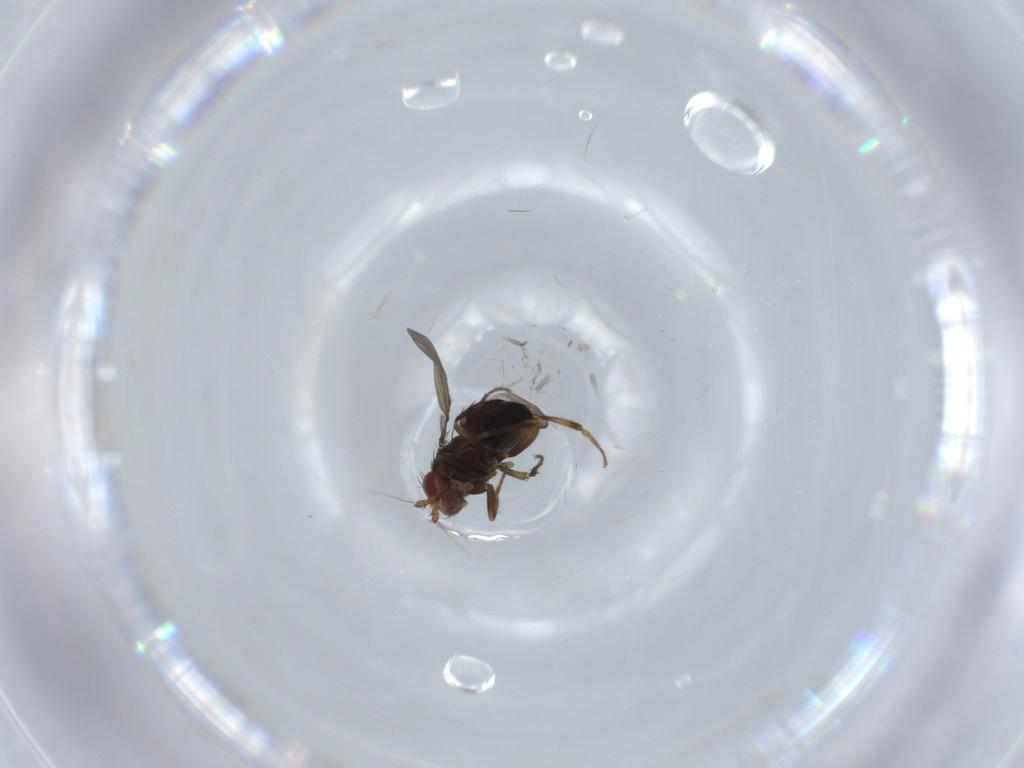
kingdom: Animalia
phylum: Arthropoda
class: Insecta
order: Diptera
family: Sphaeroceridae
